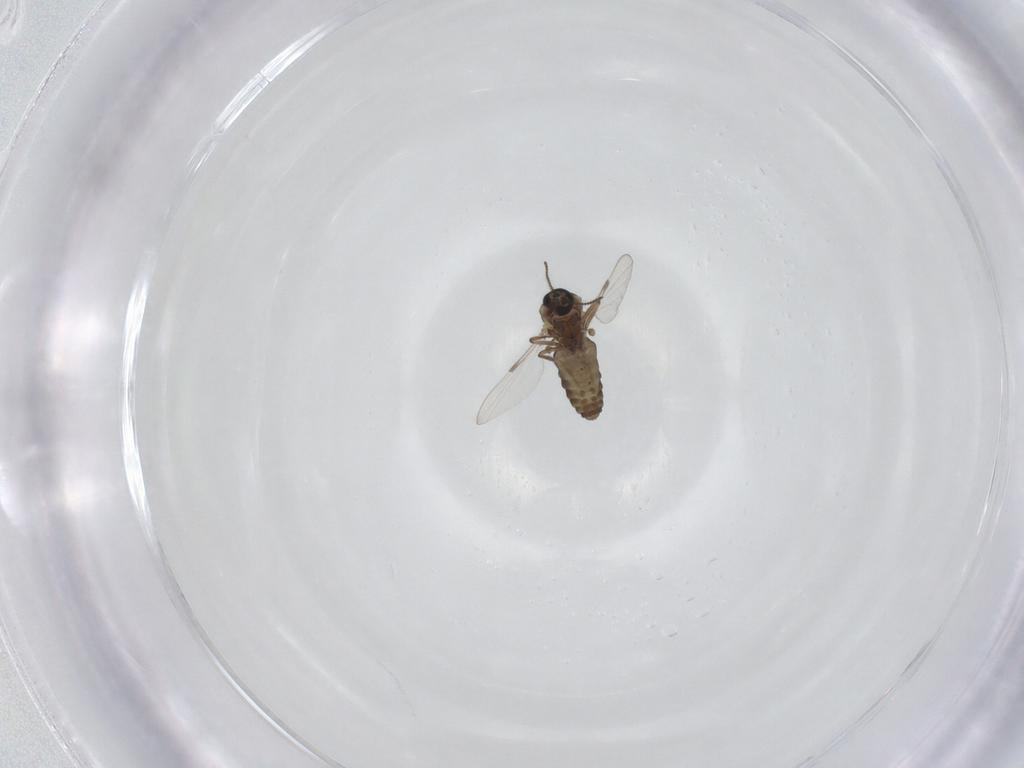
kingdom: Animalia
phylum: Arthropoda
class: Insecta
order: Diptera
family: Ceratopogonidae
